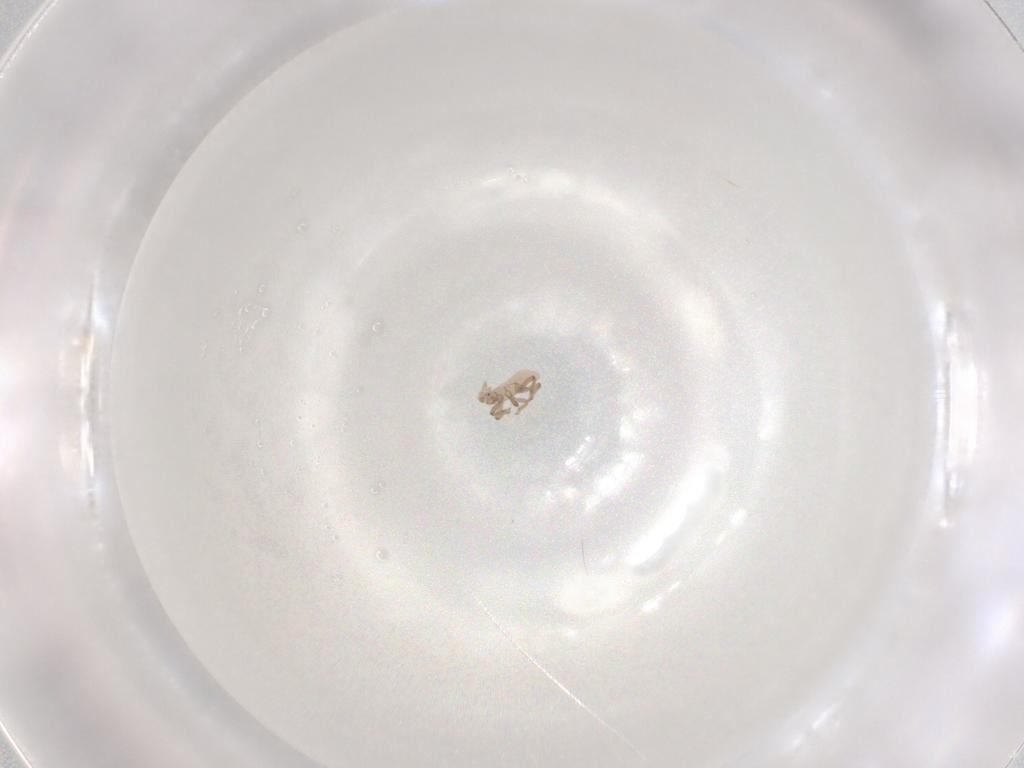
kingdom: Animalia
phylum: Arthropoda
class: Insecta
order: Hemiptera
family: Aphididae
